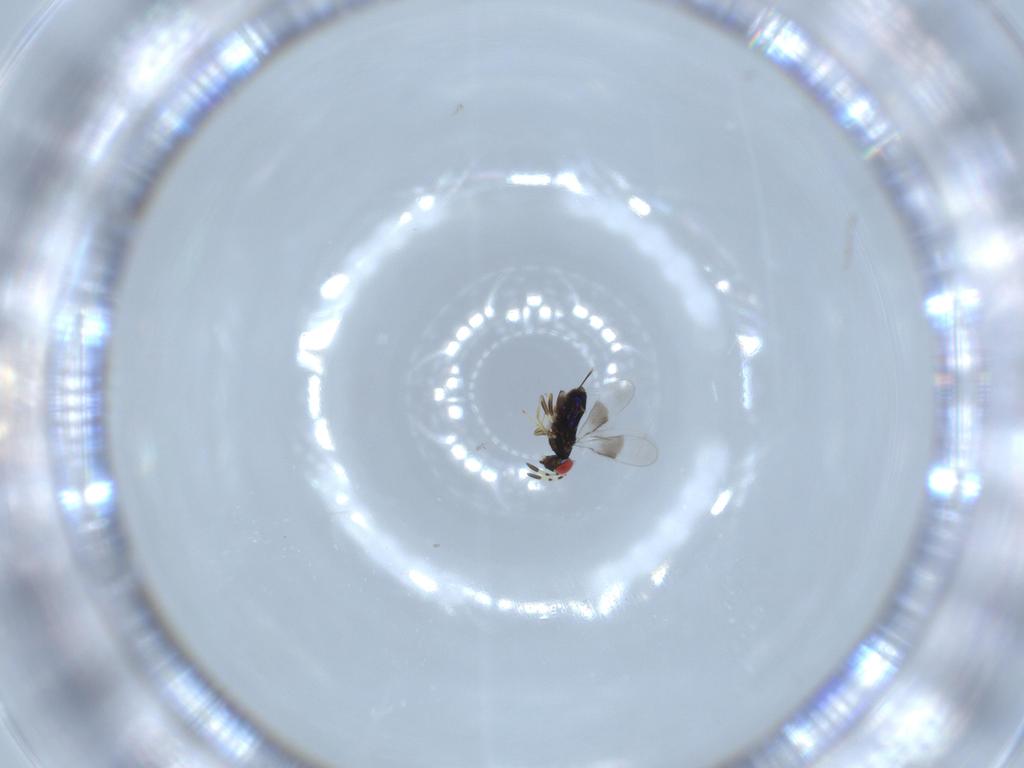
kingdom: Animalia
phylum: Arthropoda
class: Insecta
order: Hymenoptera
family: Azotidae
